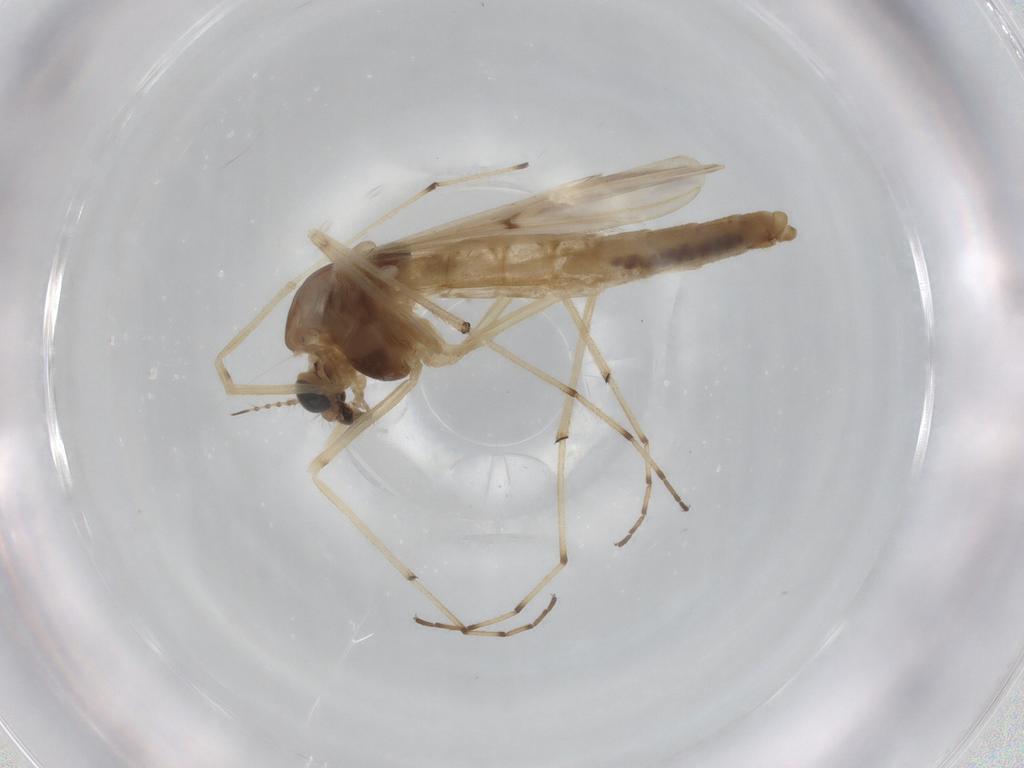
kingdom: Animalia
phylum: Arthropoda
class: Insecta
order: Diptera
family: Chironomidae
